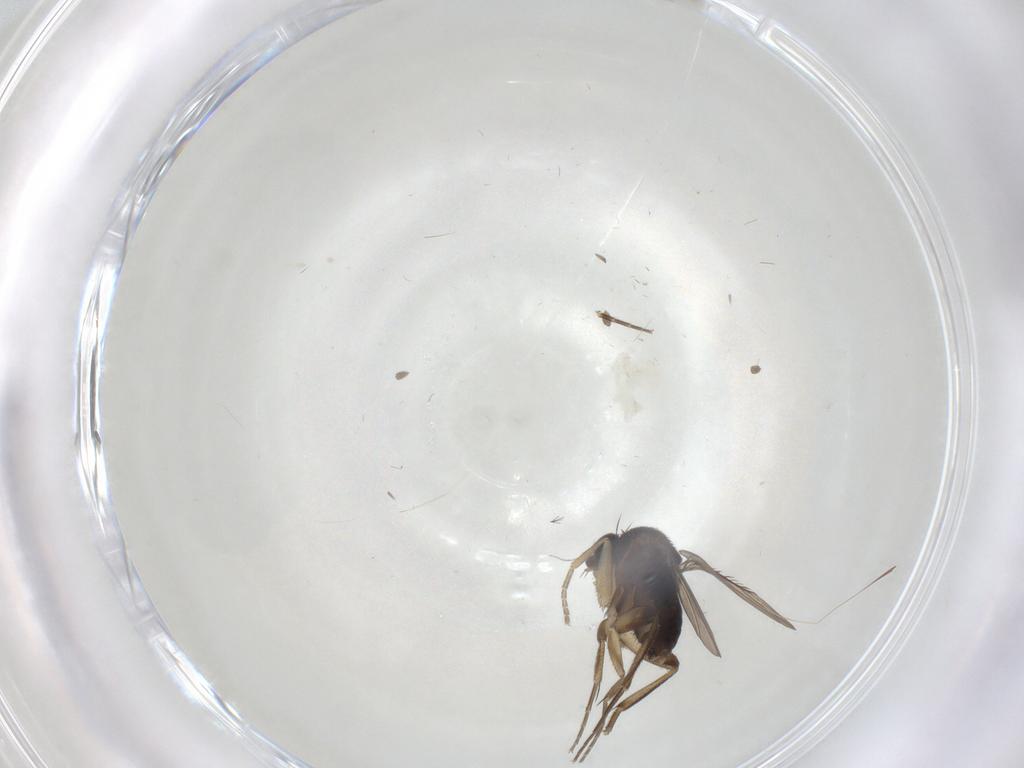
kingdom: Animalia
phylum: Arthropoda
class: Insecta
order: Diptera
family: Phoridae
